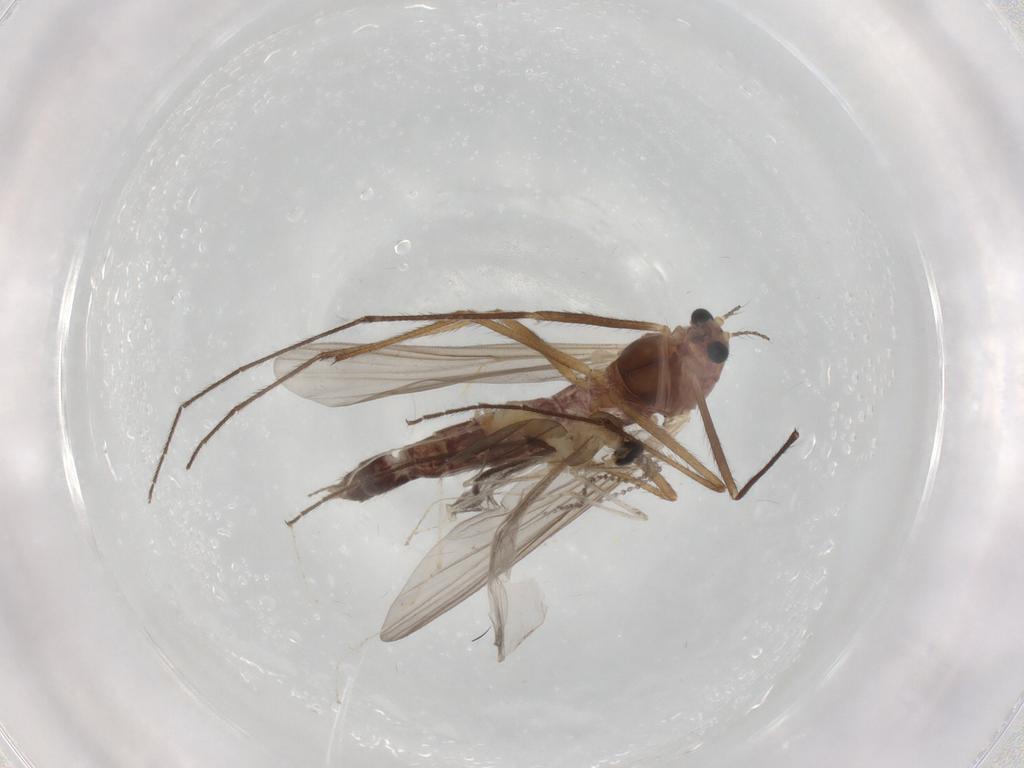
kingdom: Animalia
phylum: Arthropoda
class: Insecta
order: Diptera
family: Chironomidae
